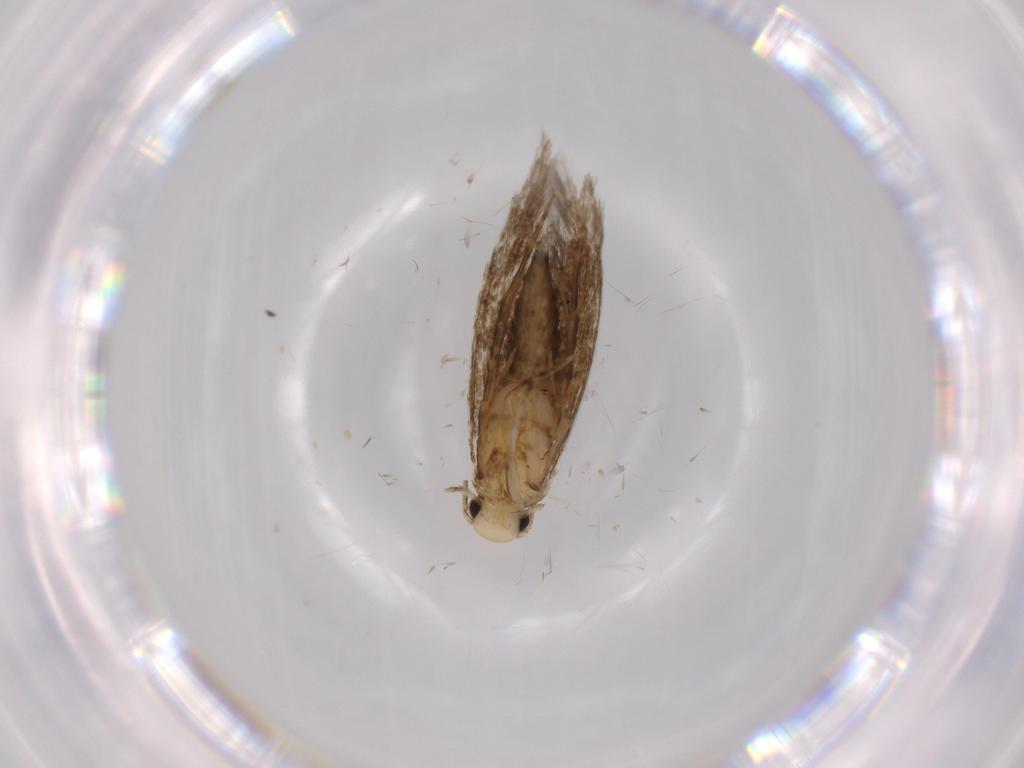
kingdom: Animalia
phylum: Arthropoda
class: Insecta
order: Lepidoptera
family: Tineidae
